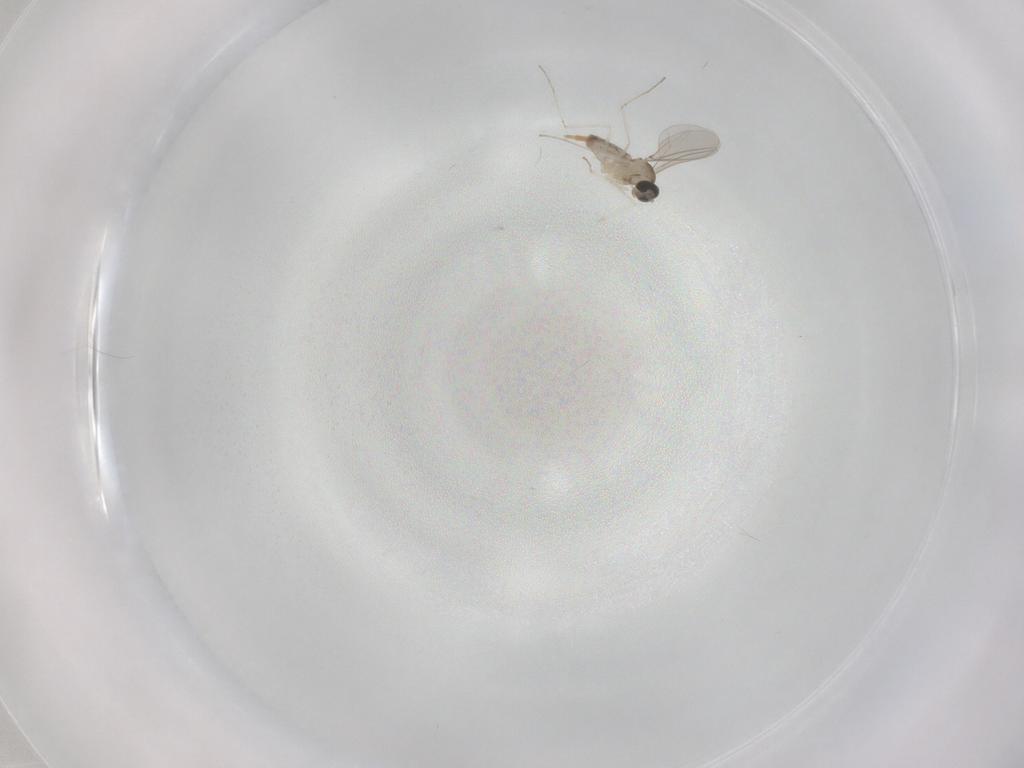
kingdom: Animalia
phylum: Arthropoda
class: Insecta
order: Diptera
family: Cecidomyiidae
